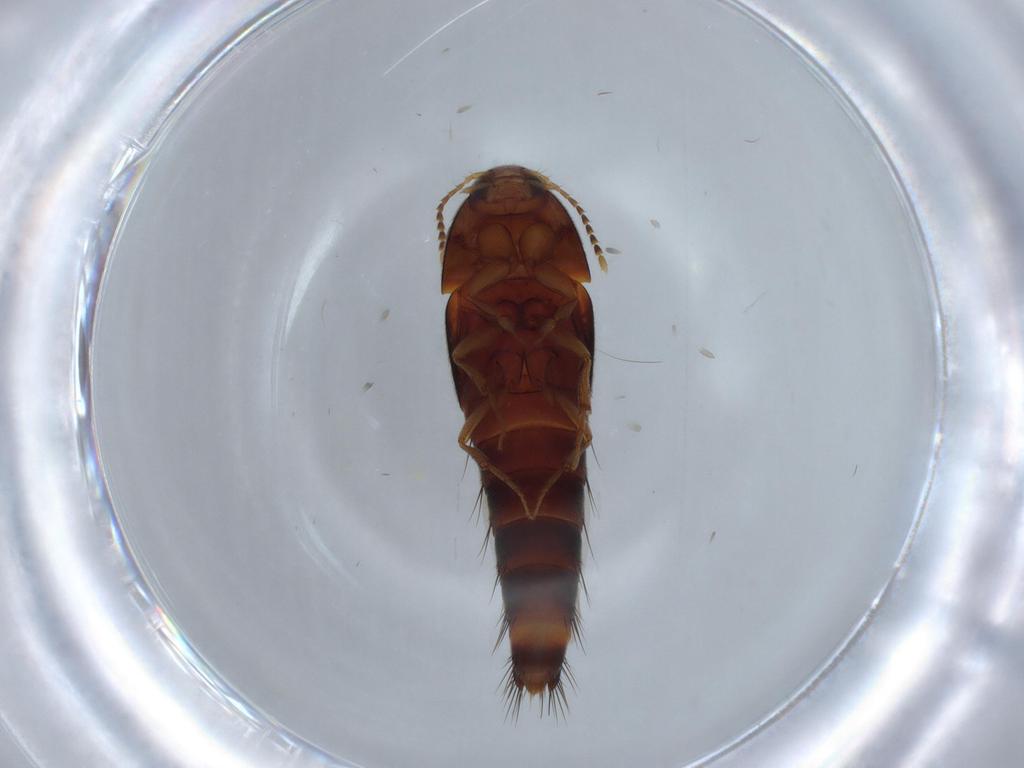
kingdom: Animalia
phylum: Arthropoda
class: Insecta
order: Coleoptera
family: Staphylinidae
